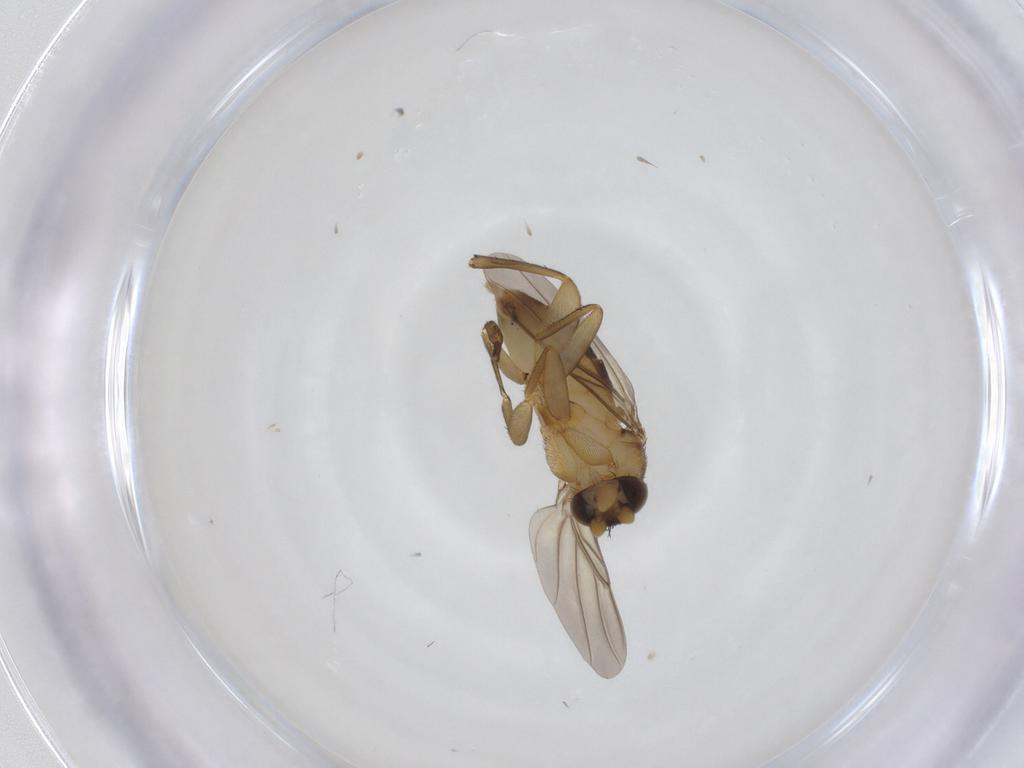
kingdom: Animalia
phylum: Arthropoda
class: Insecta
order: Diptera
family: Phoridae
